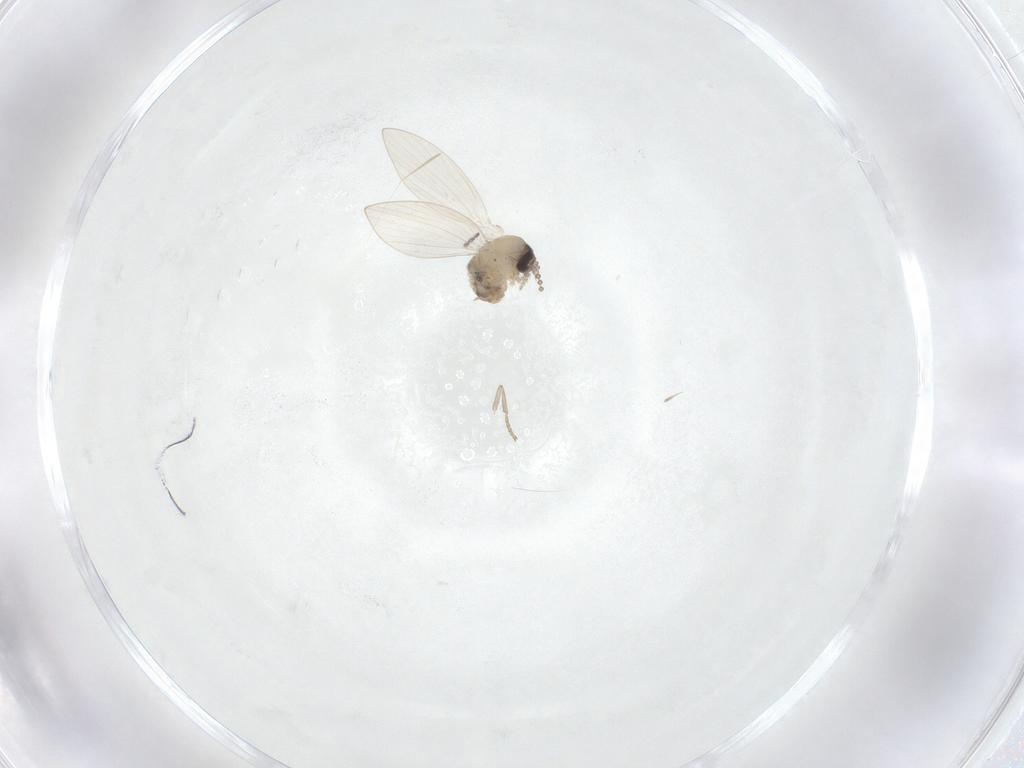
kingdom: Animalia
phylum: Arthropoda
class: Insecta
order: Diptera
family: Limoniidae
